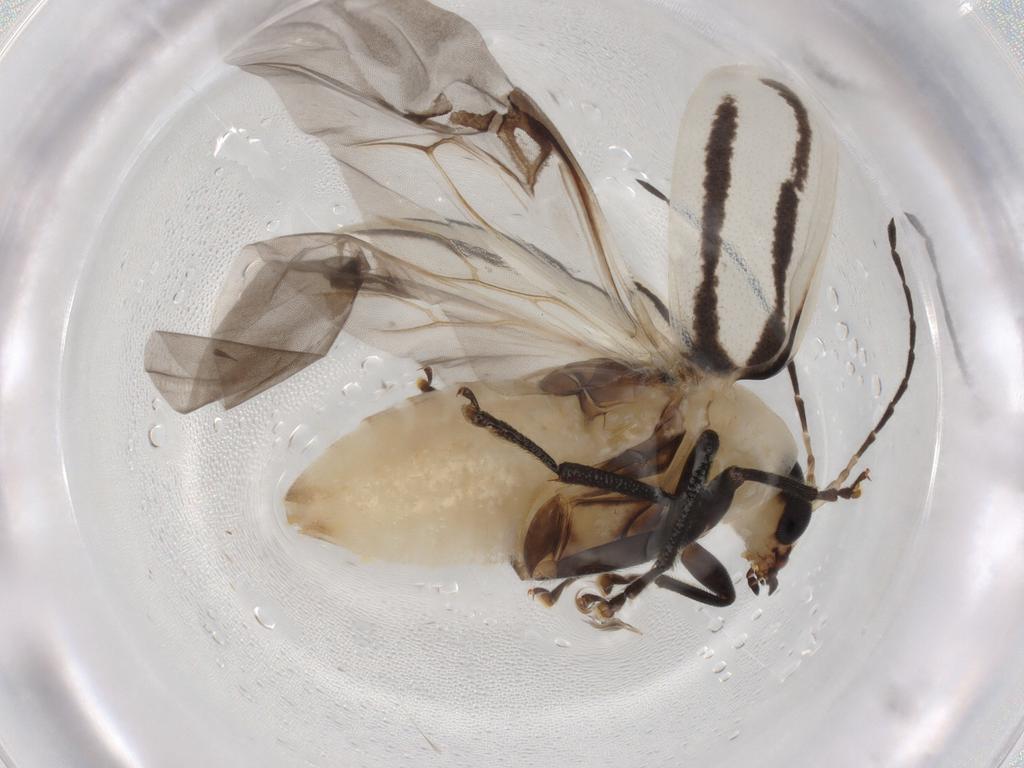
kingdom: Animalia
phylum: Arthropoda
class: Insecta
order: Coleoptera
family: Chrysomelidae
